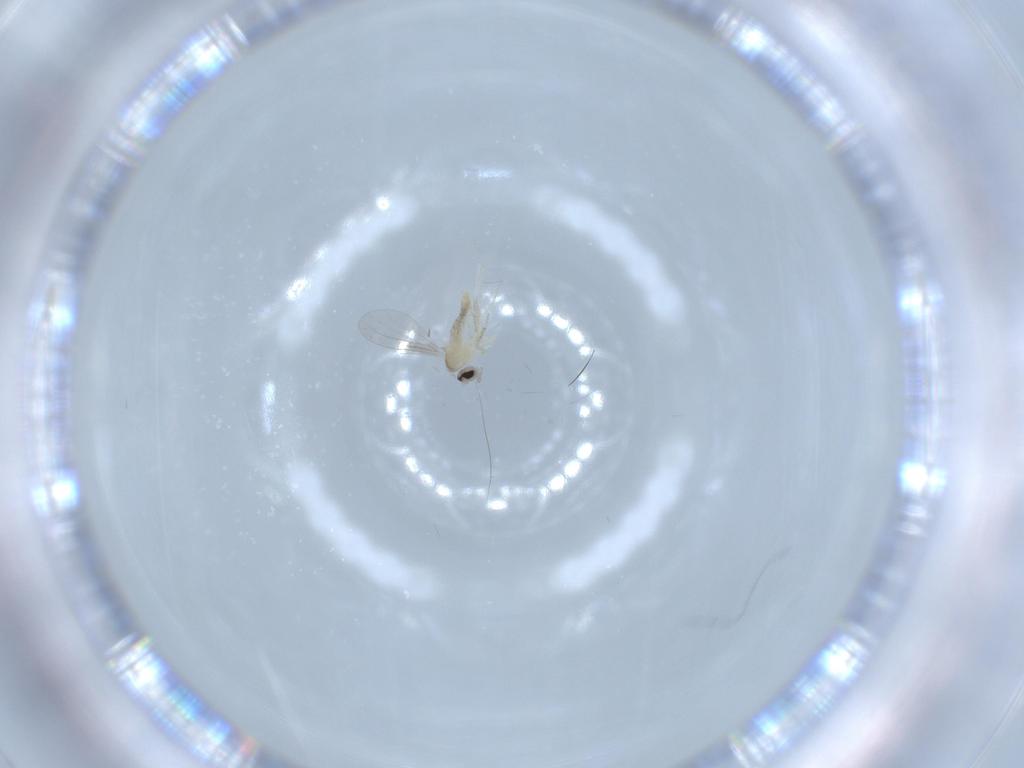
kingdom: Animalia
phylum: Arthropoda
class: Insecta
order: Diptera
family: Cecidomyiidae
